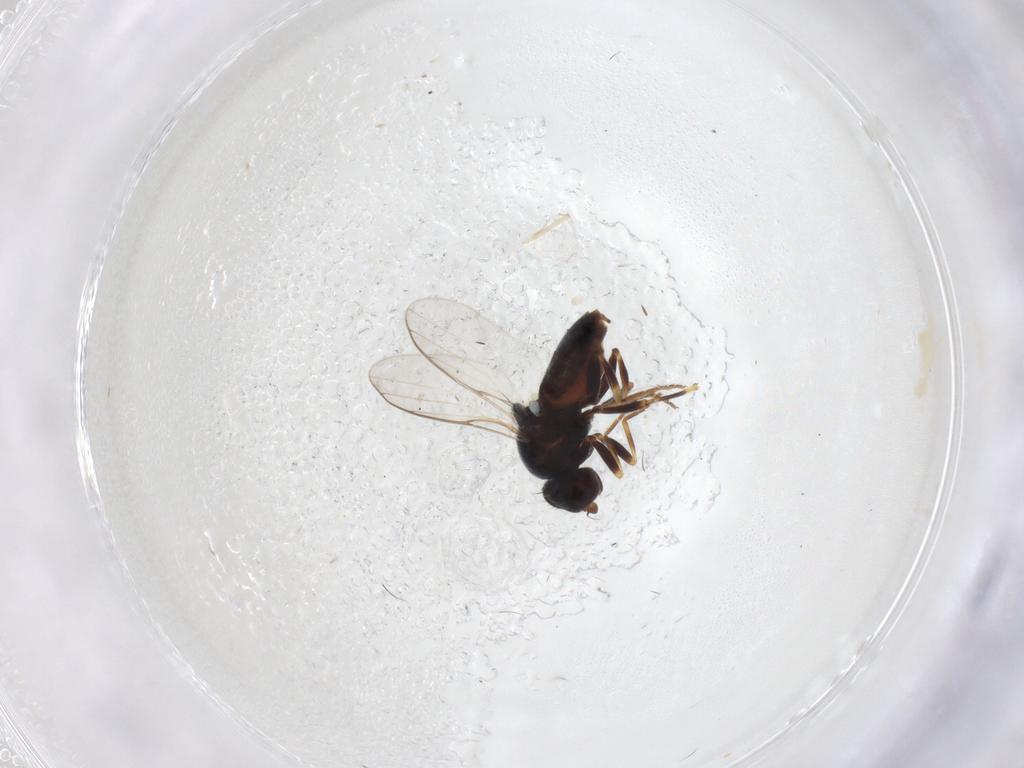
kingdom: Animalia
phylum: Arthropoda
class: Insecta
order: Diptera
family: Chloropidae
